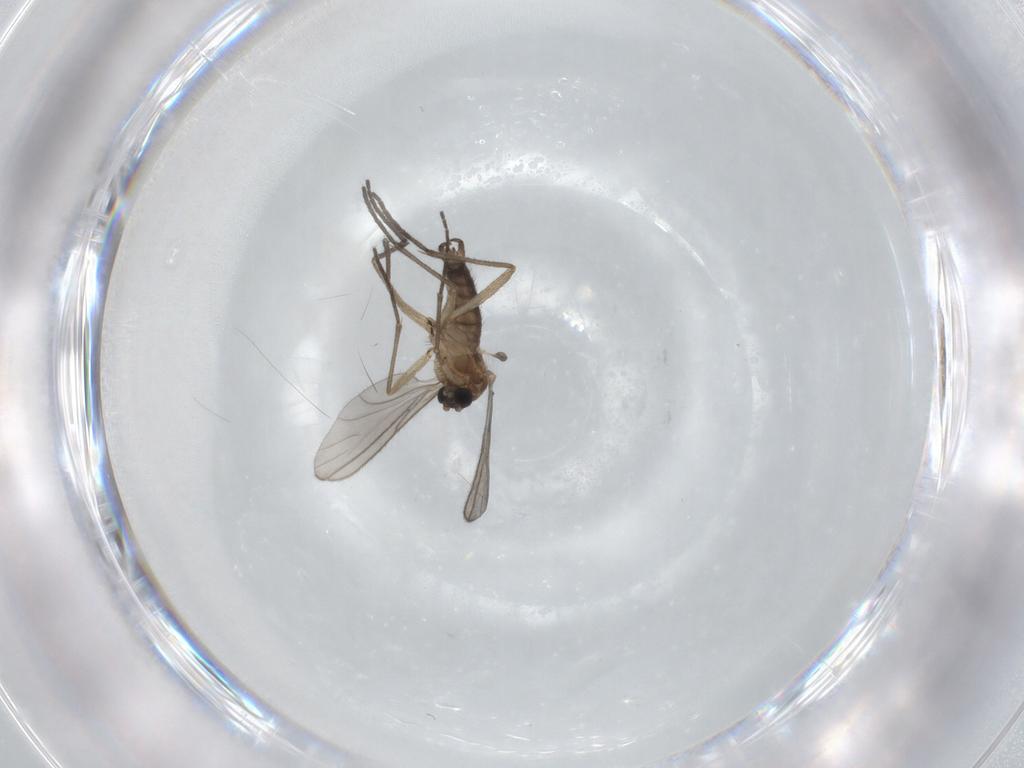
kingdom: Animalia
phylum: Arthropoda
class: Insecta
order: Diptera
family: Sciaridae
